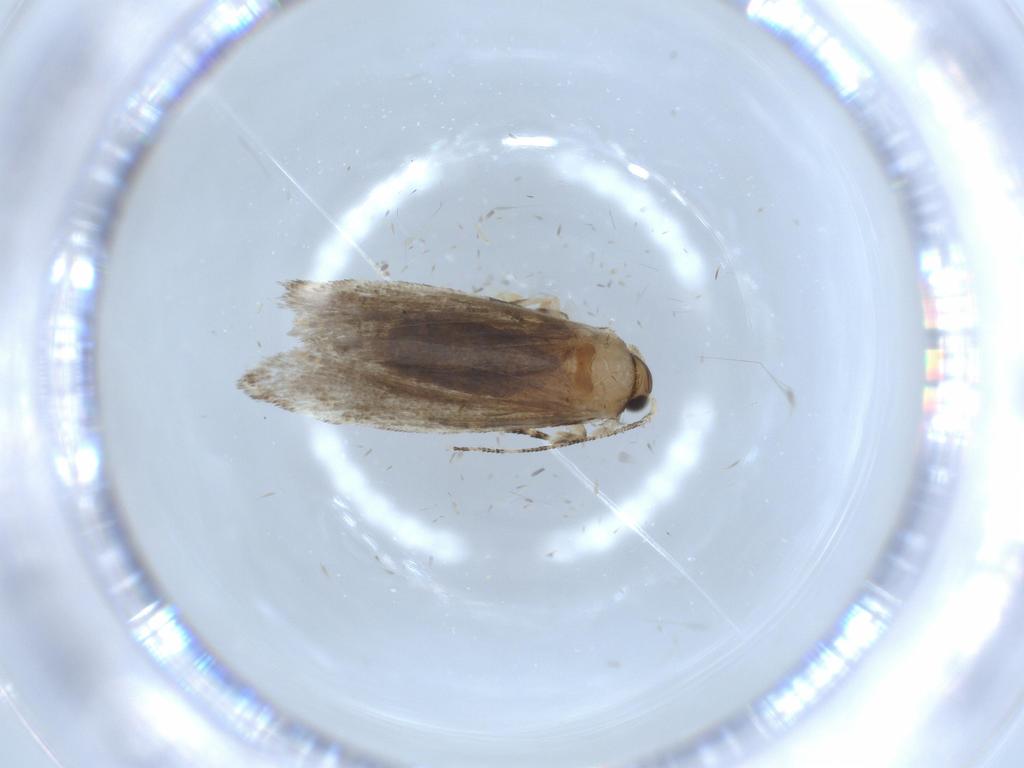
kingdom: Animalia
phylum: Arthropoda
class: Insecta
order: Lepidoptera
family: Tineidae
